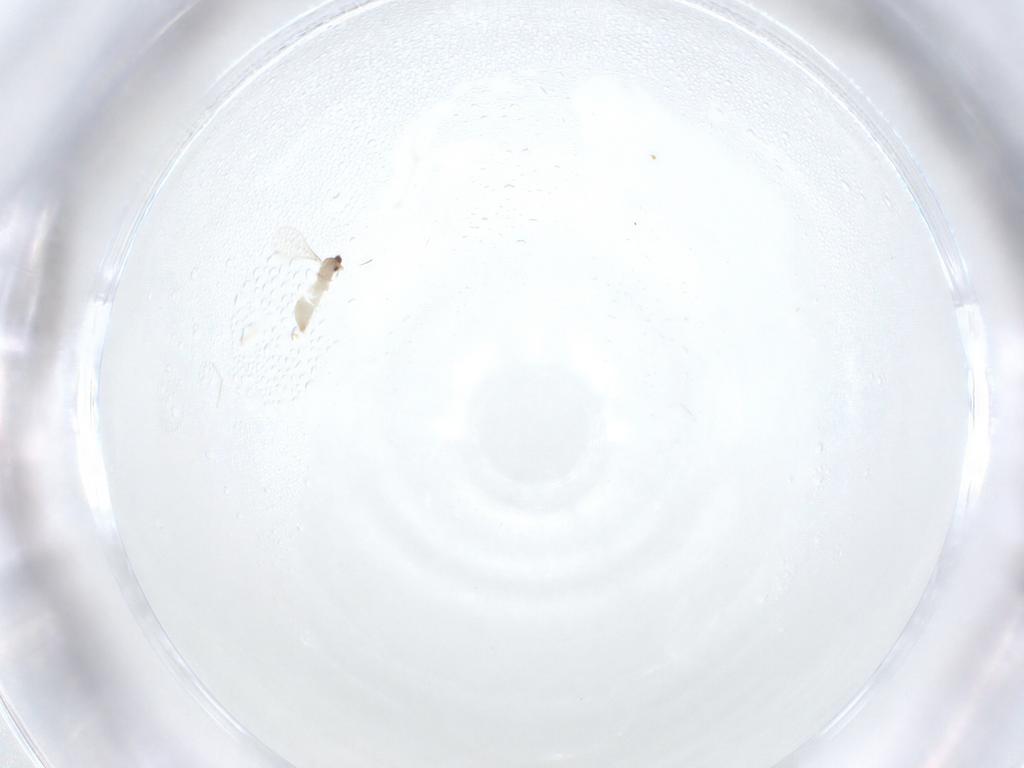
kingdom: Animalia
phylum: Arthropoda
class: Insecta
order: Diptera
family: Cecidomyiidae
